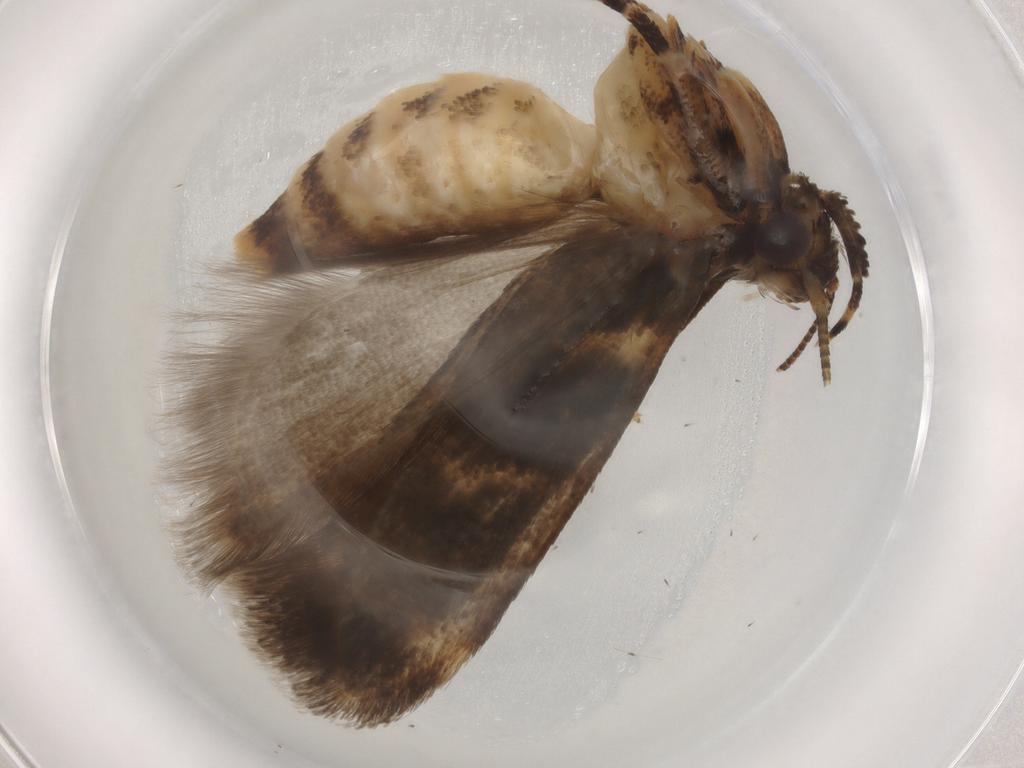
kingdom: Animalia
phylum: Arthropoda
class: Insecta
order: Lepidoptera
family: Gelechiidae
